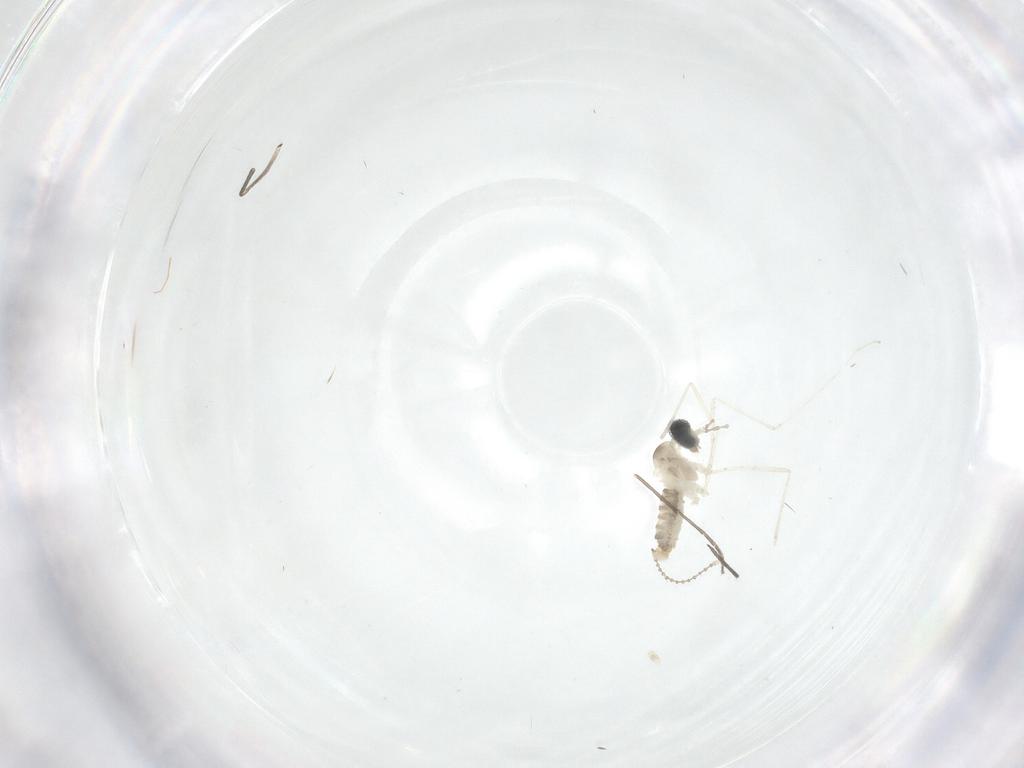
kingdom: Animalia
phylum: Arthropoda
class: Insecta
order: Diptera
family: Cecidomyiidae
